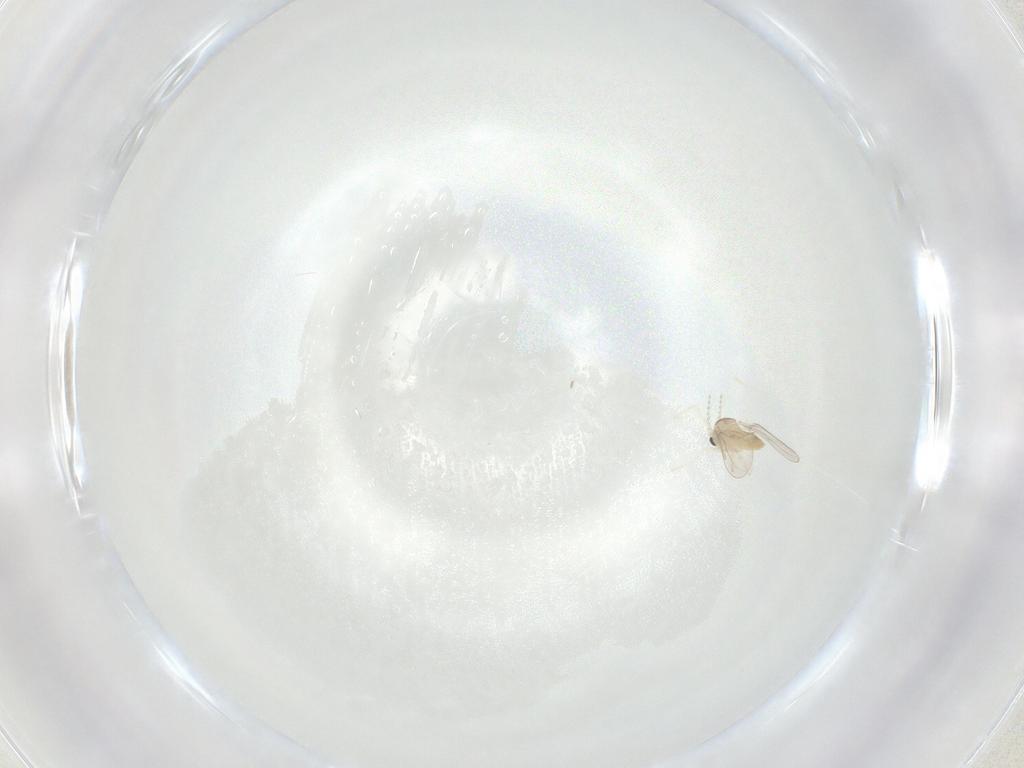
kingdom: Animalia
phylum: Arthropoda
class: Insecta
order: Diptera
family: Cecidomyiidae
